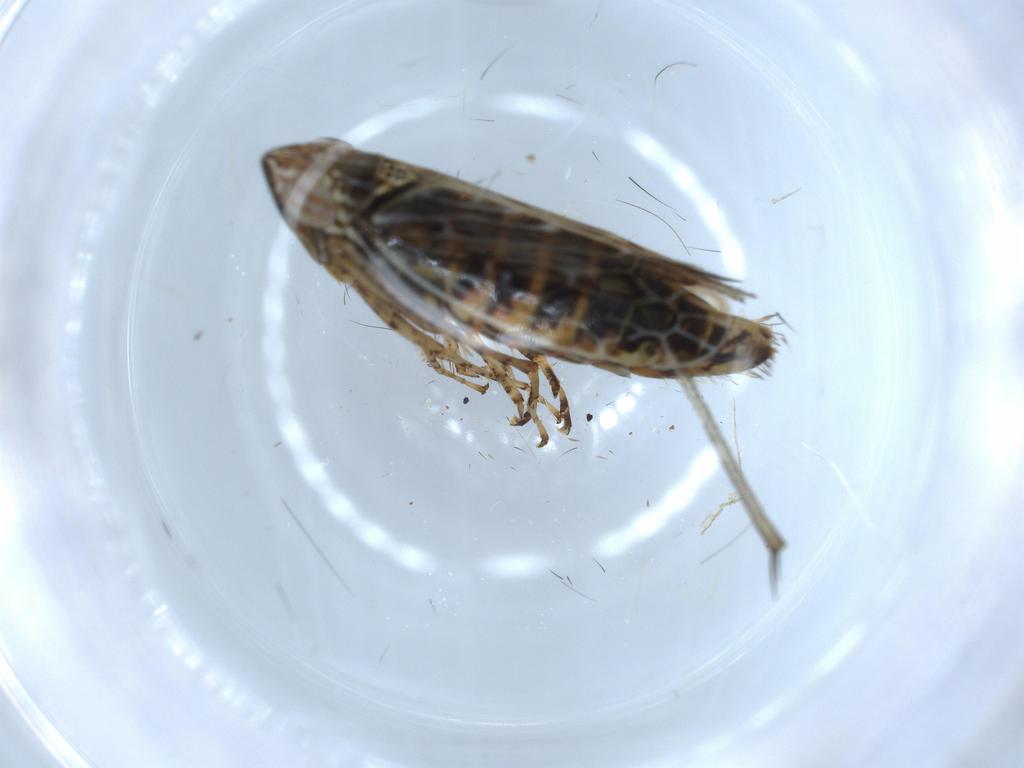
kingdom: Animalia
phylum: Arthropoda
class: Insecta
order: Hemiptera
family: Cicadellidae
